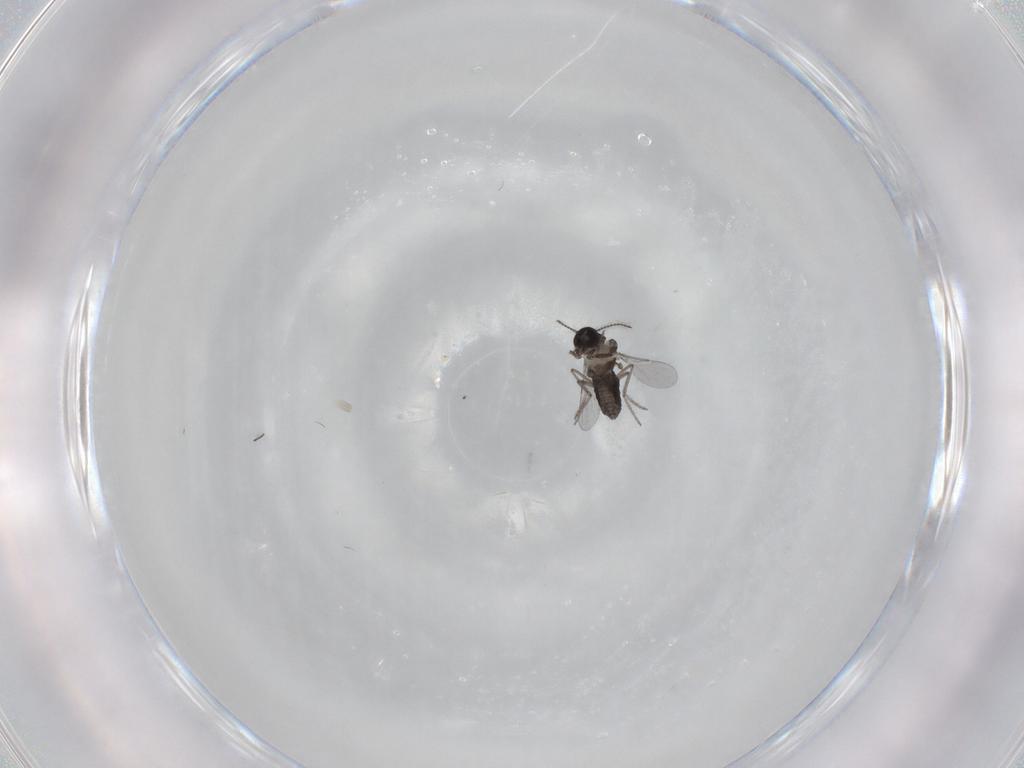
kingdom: Animalia
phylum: Arthropoda
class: Insecta
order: Diptera
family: Ceratopogonidae
